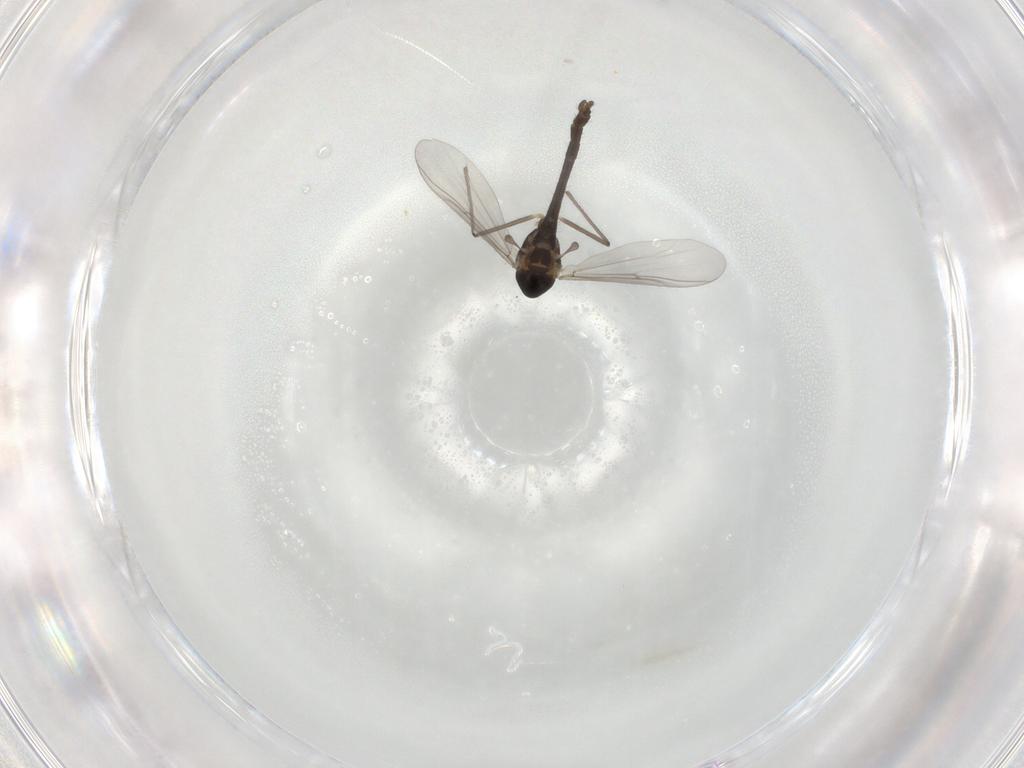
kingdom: Animalia
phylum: Arthropoda
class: Insecta
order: Diptera
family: Chironomidae
